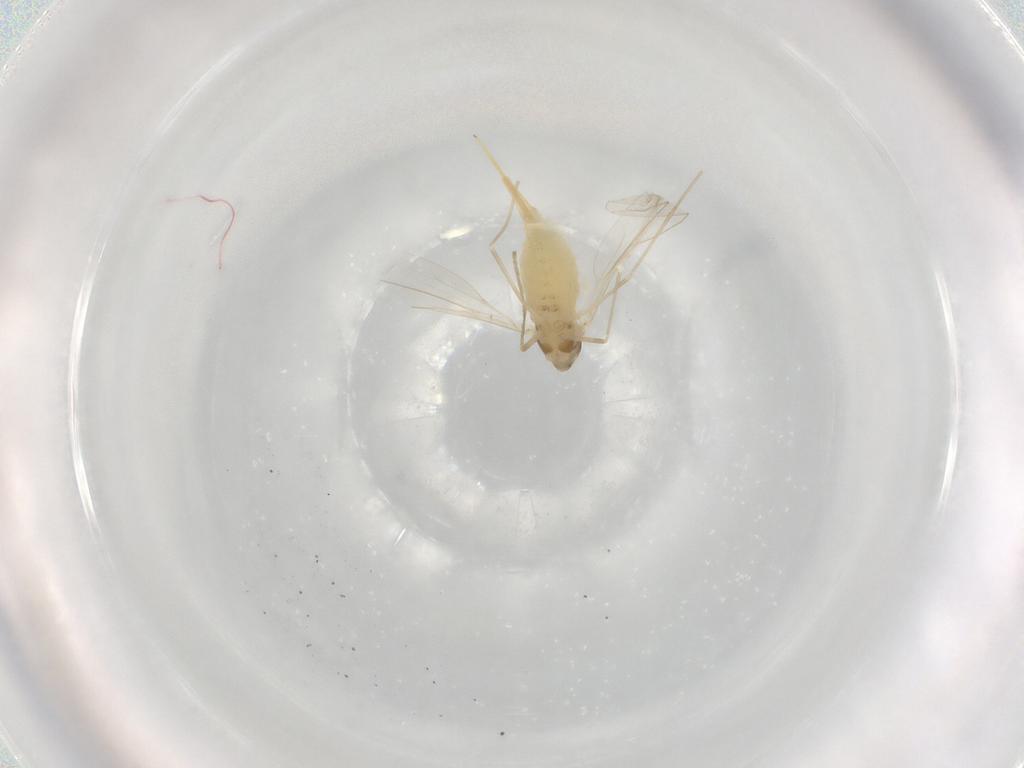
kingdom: Animalia
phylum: Arthropoda
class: Insecta
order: Diptera
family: Cecidomyiidae
